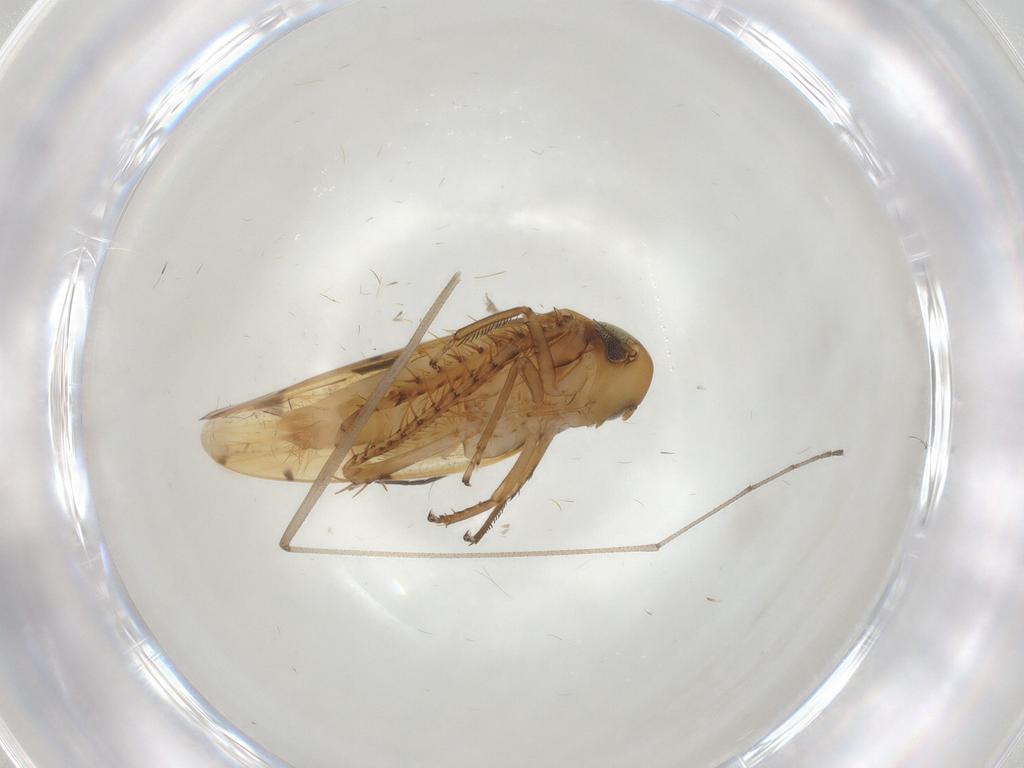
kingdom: Animalia
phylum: Arthropoda
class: Insecta
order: Hemiptera
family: Cicadellidae
